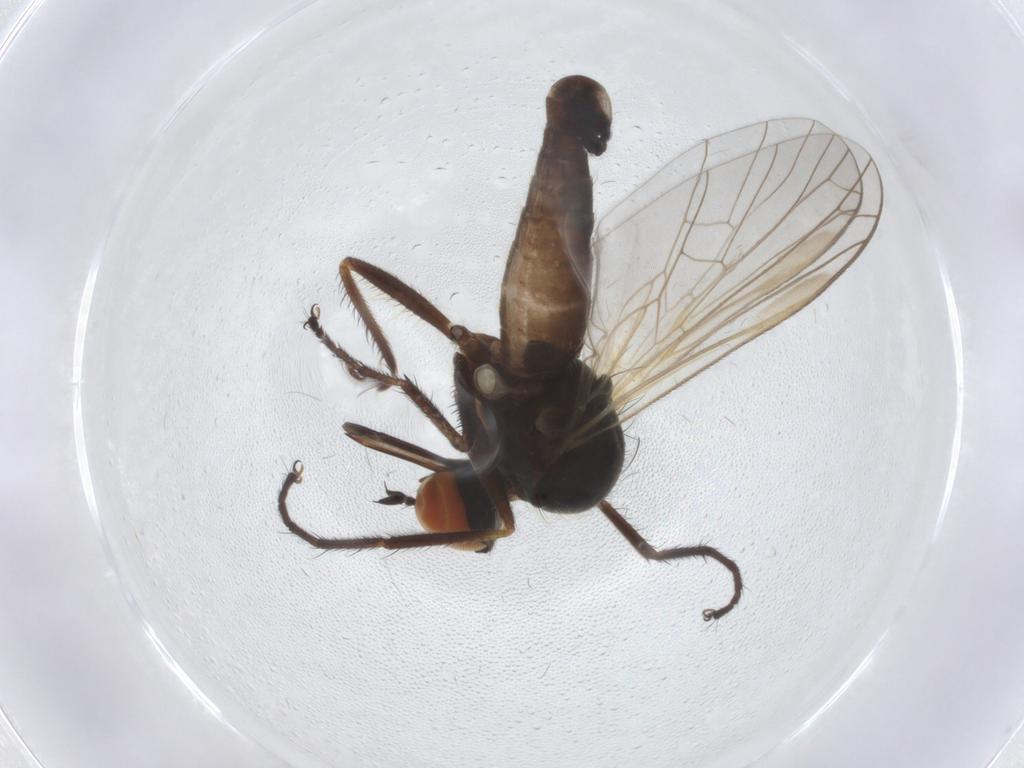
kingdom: Animalia
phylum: Arthropoda
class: Insecta
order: Diptera
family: Empididae
